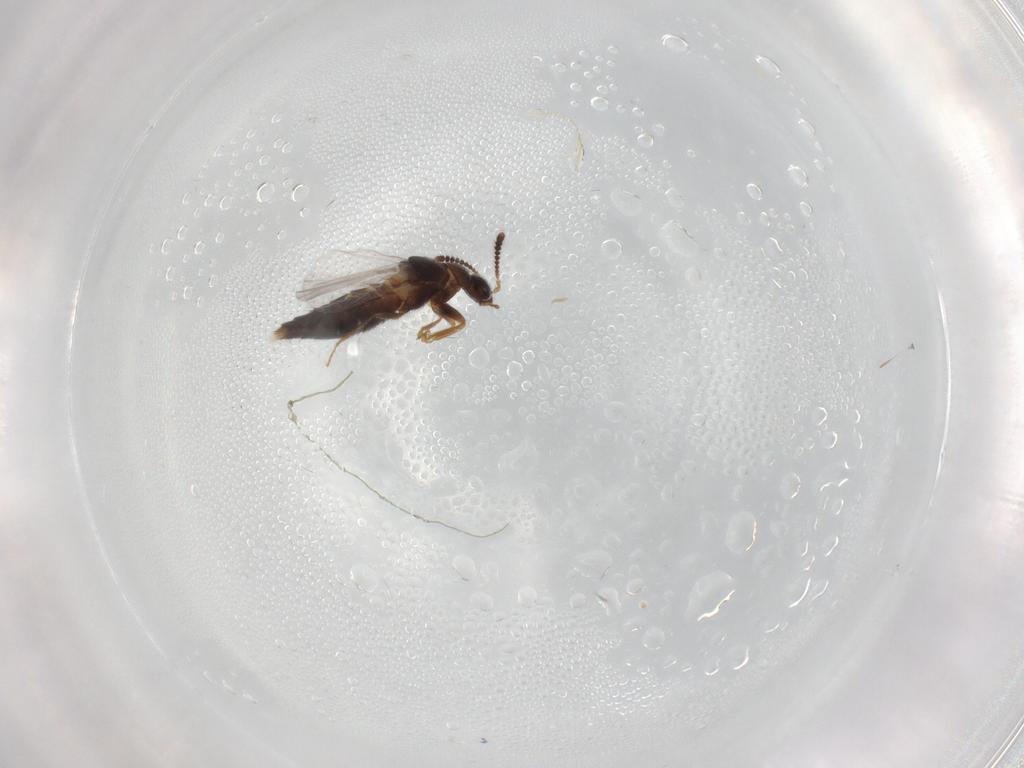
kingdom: Animalia
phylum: Arthropoda
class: Insecta
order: Coleoptera
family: Staphylinidae
